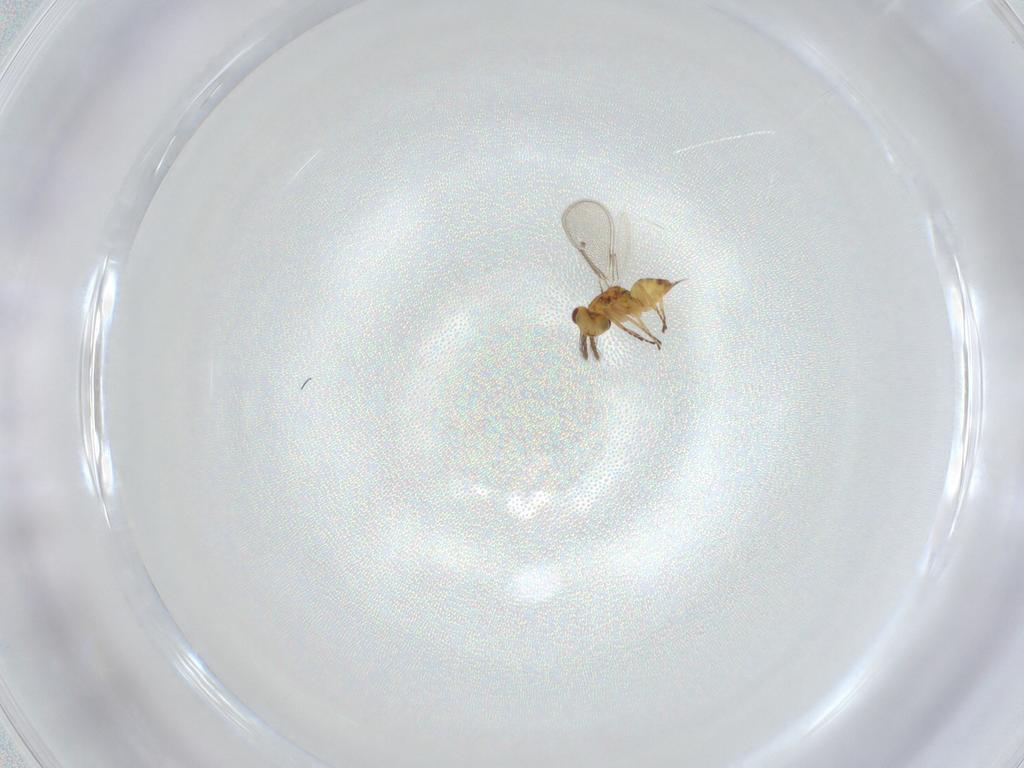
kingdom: Animalia
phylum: Arthropoda
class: Insecta
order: Hymenoptera
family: Eulophidae
